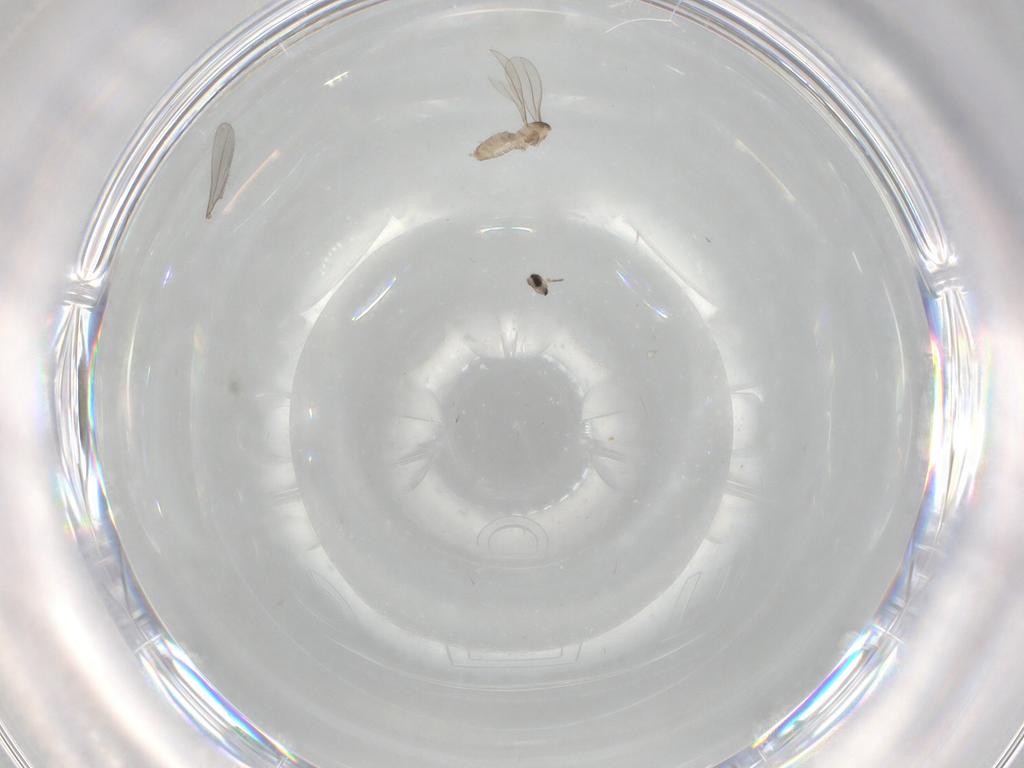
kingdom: Animalia
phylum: Arthropoda
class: Insecta
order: Diptera
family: Cecidomyiidae
